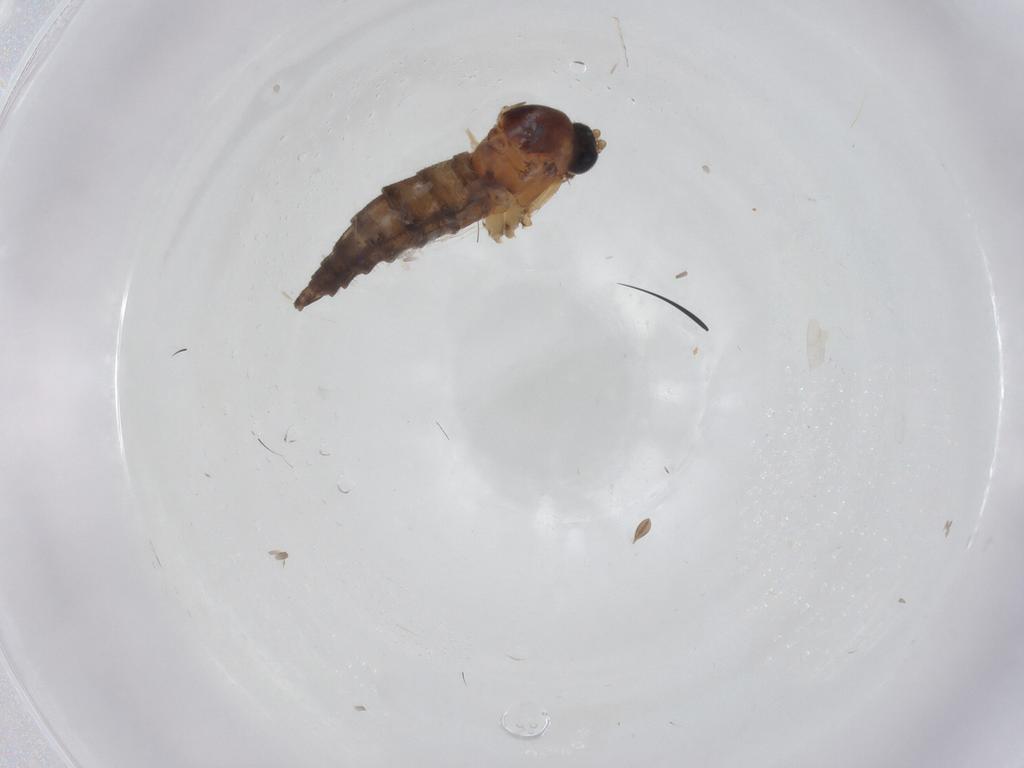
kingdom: Animalia
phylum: Arthropoda
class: Insecta
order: Diptera
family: Sciaridae
